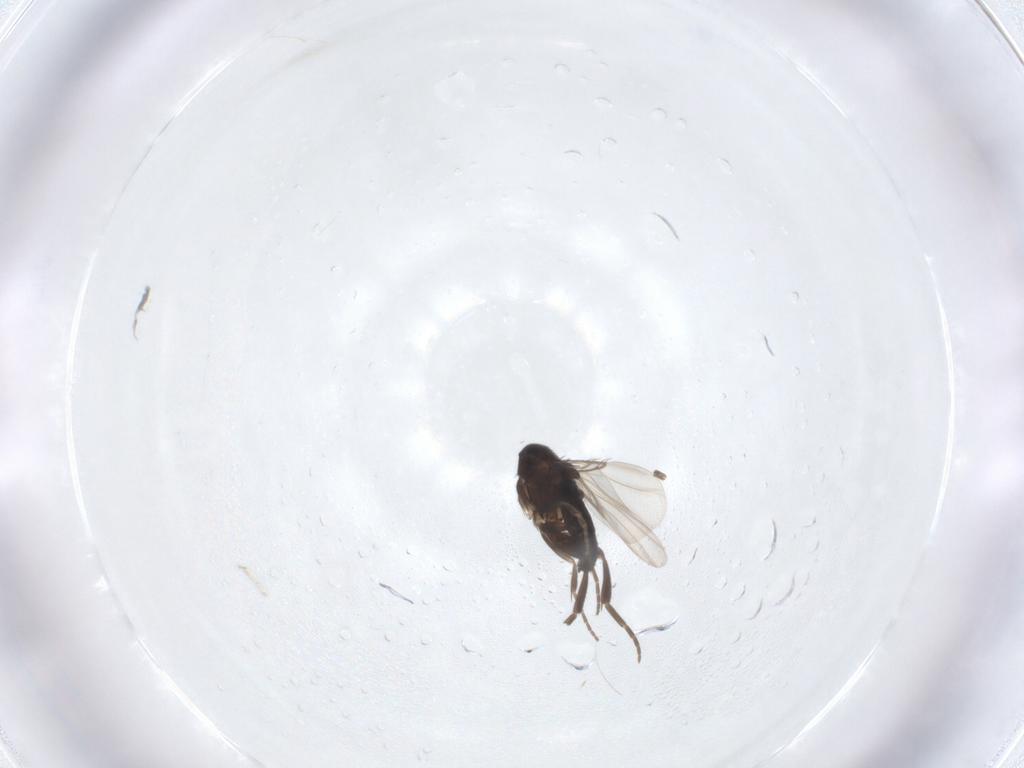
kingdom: Animalia
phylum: Arthropoda
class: Insecta
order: Diptera
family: Phoridae
